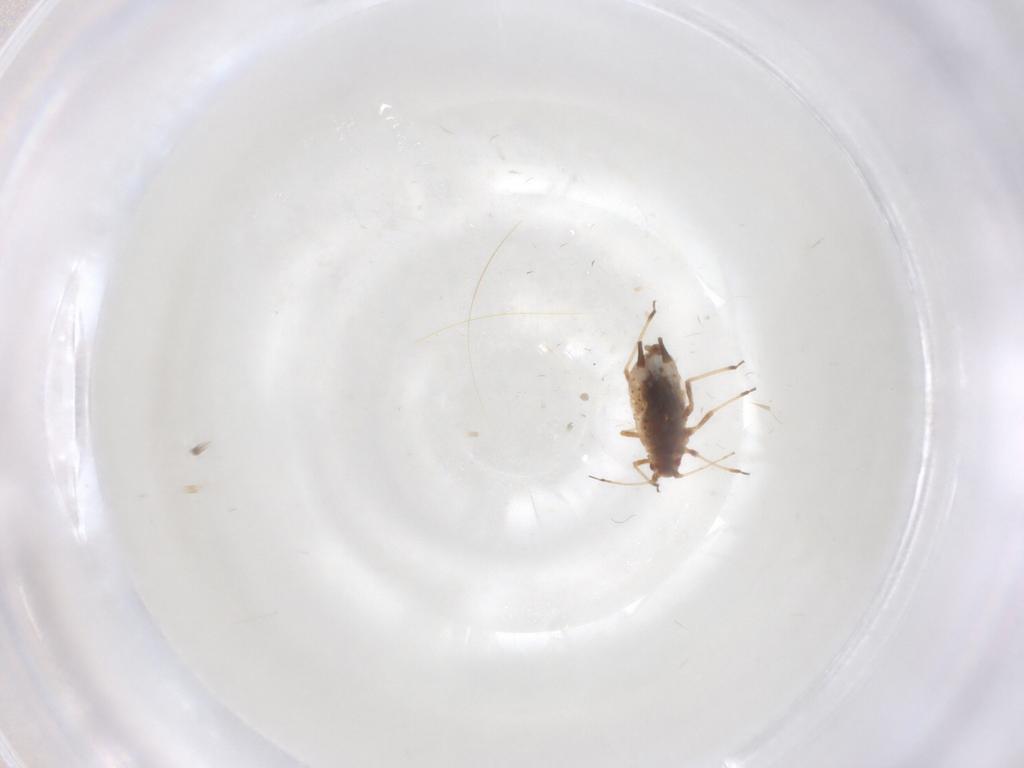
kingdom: Animalia
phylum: Arthropoda
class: Insecta
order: Hemiptera
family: Aphididae
